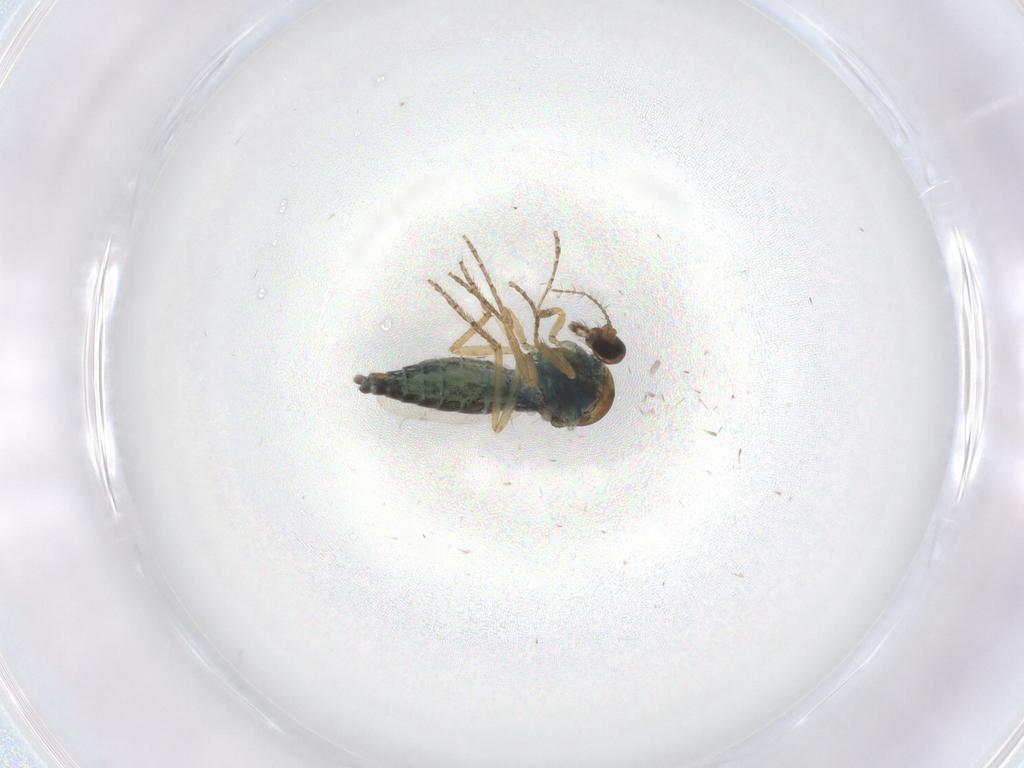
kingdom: Animalia
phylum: Arthropoda
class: Insecta
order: Diptera
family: Ceratopogonidae
